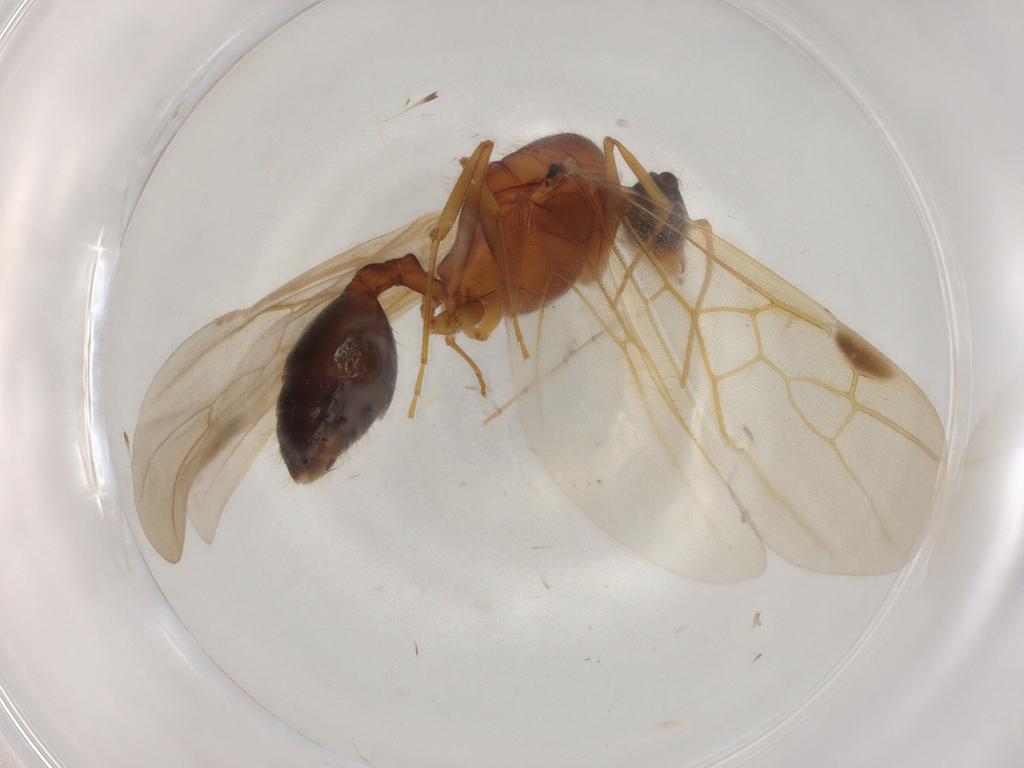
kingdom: Animalia
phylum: Arthropoda
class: Insecta
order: Hymenoptera
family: Formicidae
